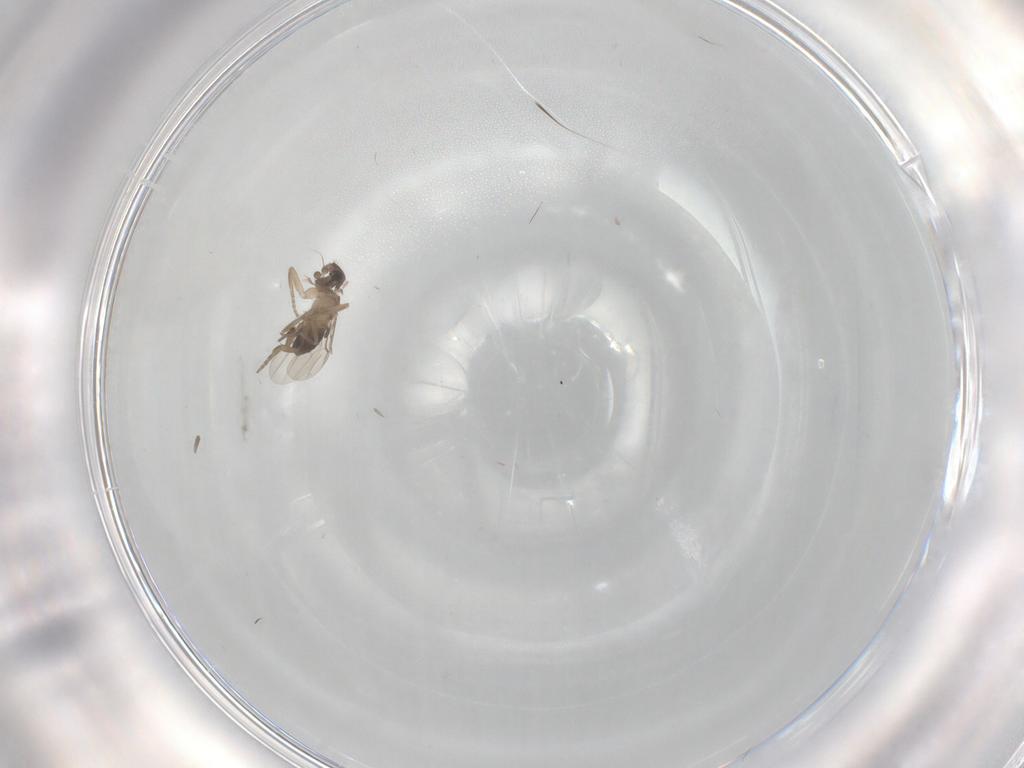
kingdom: Animalia
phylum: Arthropoda
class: Insecta
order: Diptera
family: Phoridae
